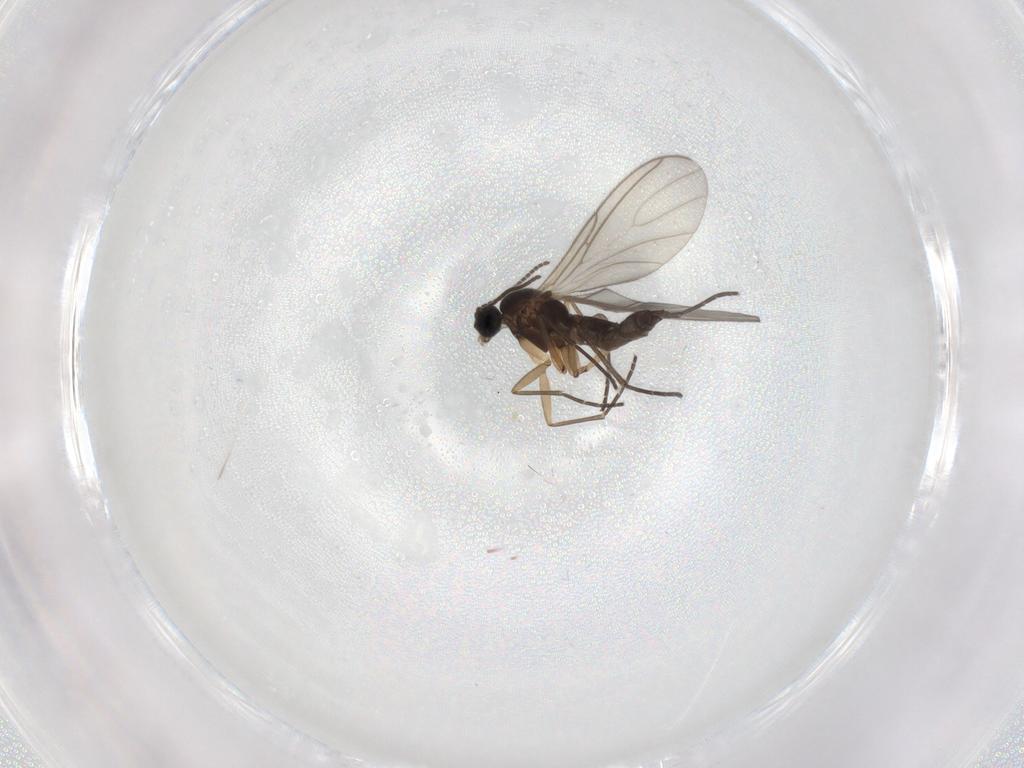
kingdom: Animalia
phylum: Arthropoda
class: Insecta
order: Diptera
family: Sciaridae
